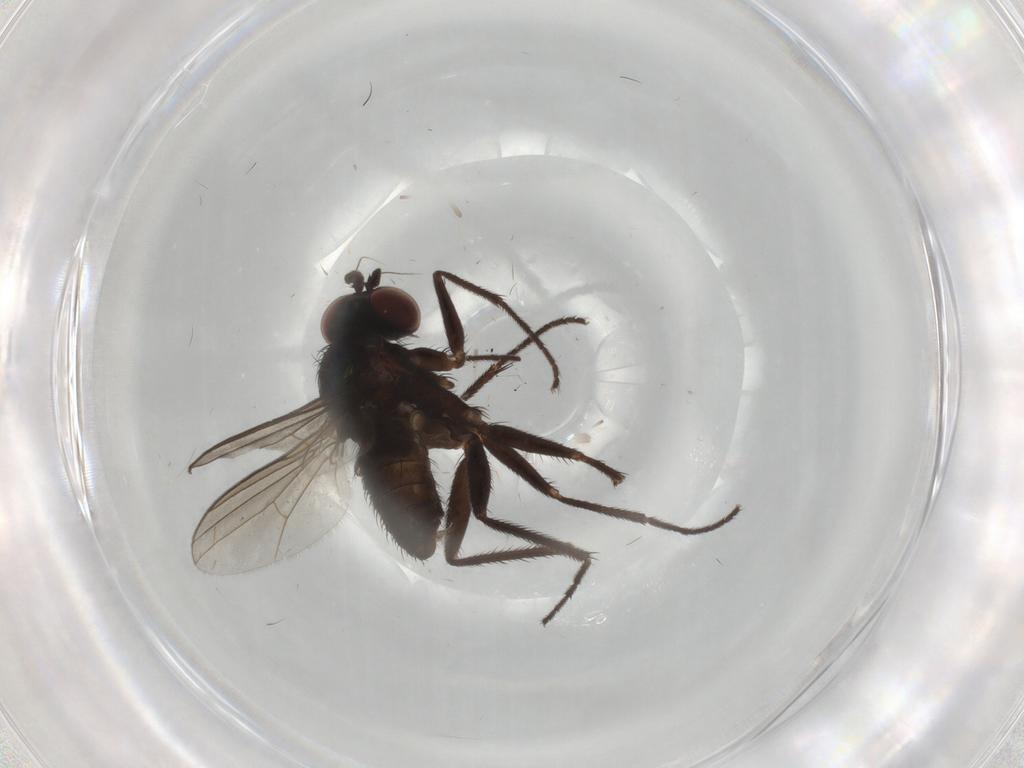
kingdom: Animalia
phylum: Arthropoda
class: Insecta
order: Diptera
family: Dolichopodidae
